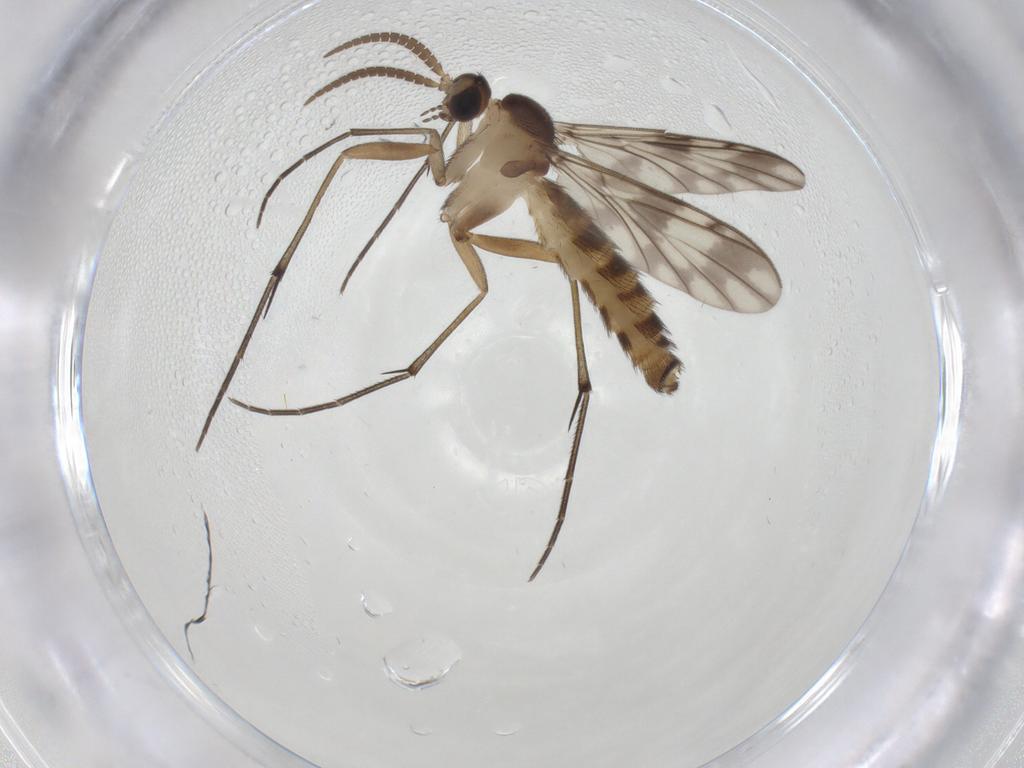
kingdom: Animalia
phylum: Arthropoda
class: Insecta
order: Diptera
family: Keroplatidae
